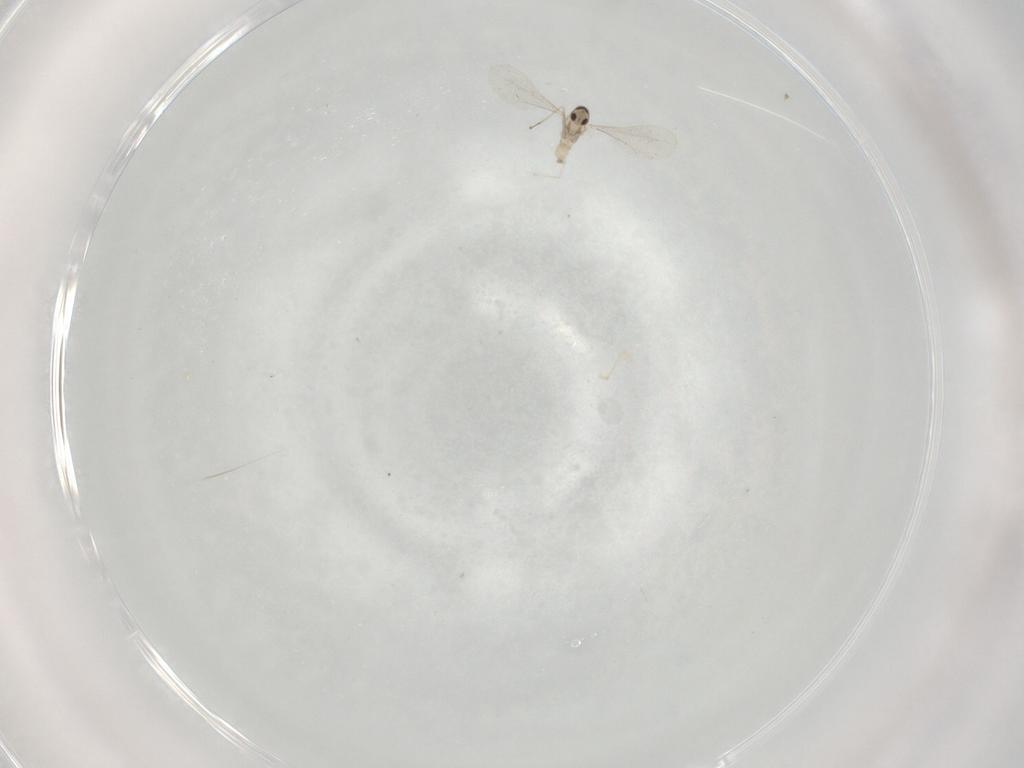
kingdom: Animalia
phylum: Arthropoda
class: Insecta
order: Diptera
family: Cecidomyiidae
